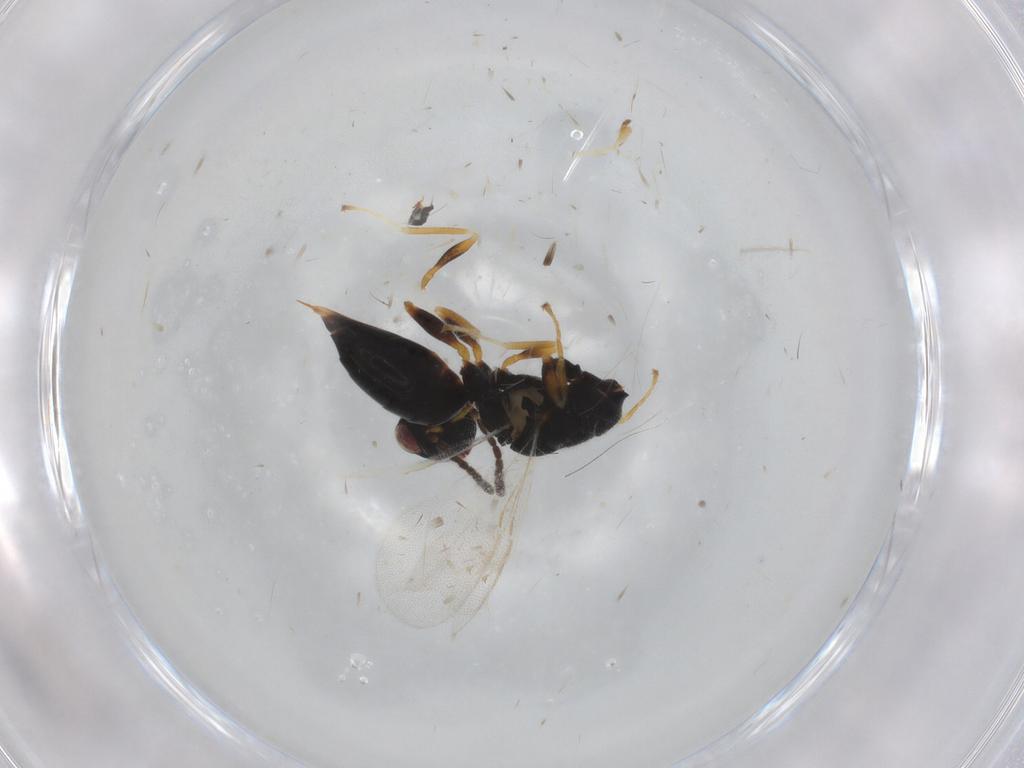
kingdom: Animalia
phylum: Arthropoda
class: Insecta
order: Hymenoptera
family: Eurytomidae
